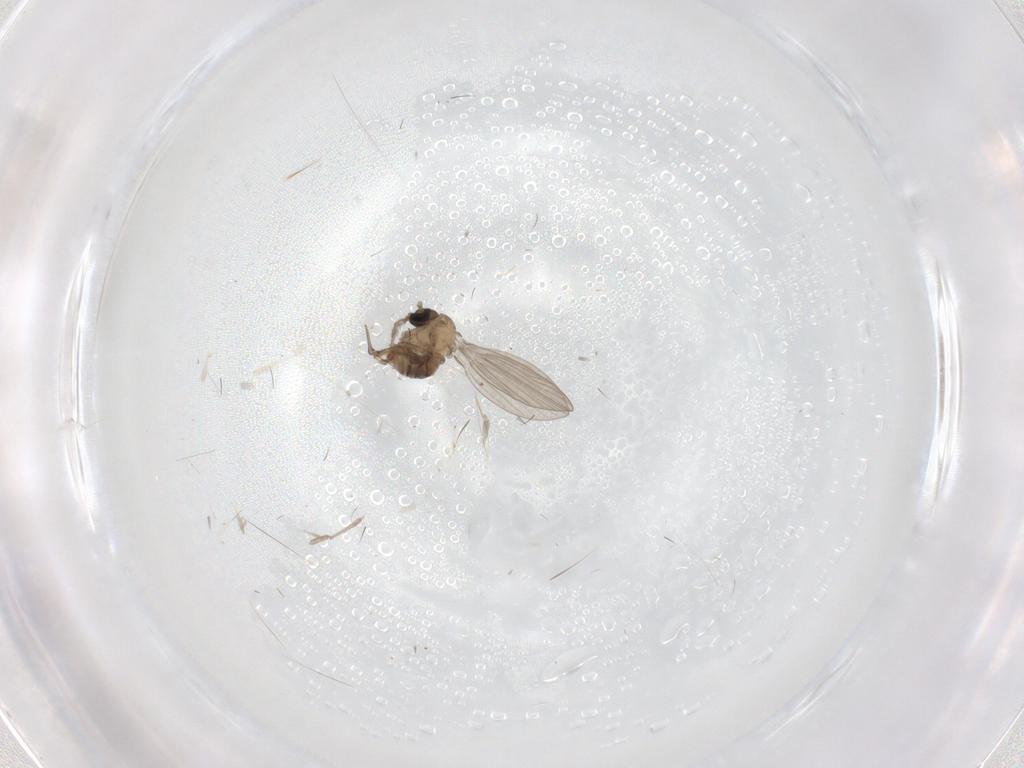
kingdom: Animalia
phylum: Arthropoda
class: Insecta
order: Diptera
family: Psychodidae
